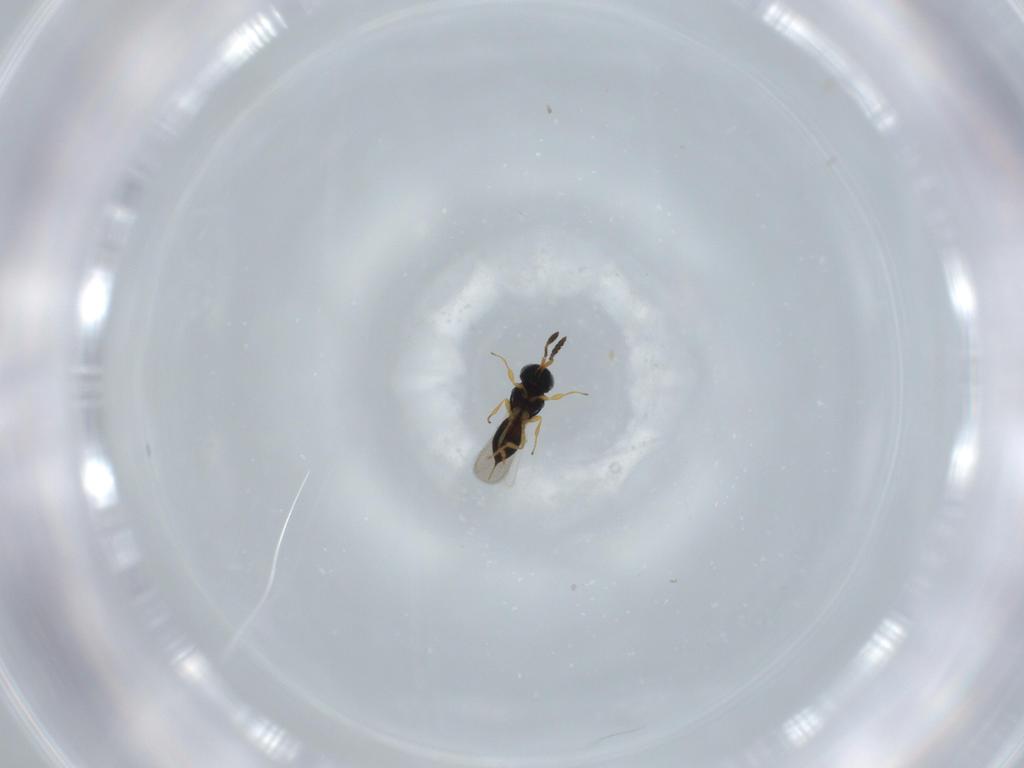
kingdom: Animalia
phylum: Arthropoda
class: Insecta
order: Hymenoptera
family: Scelionidae
